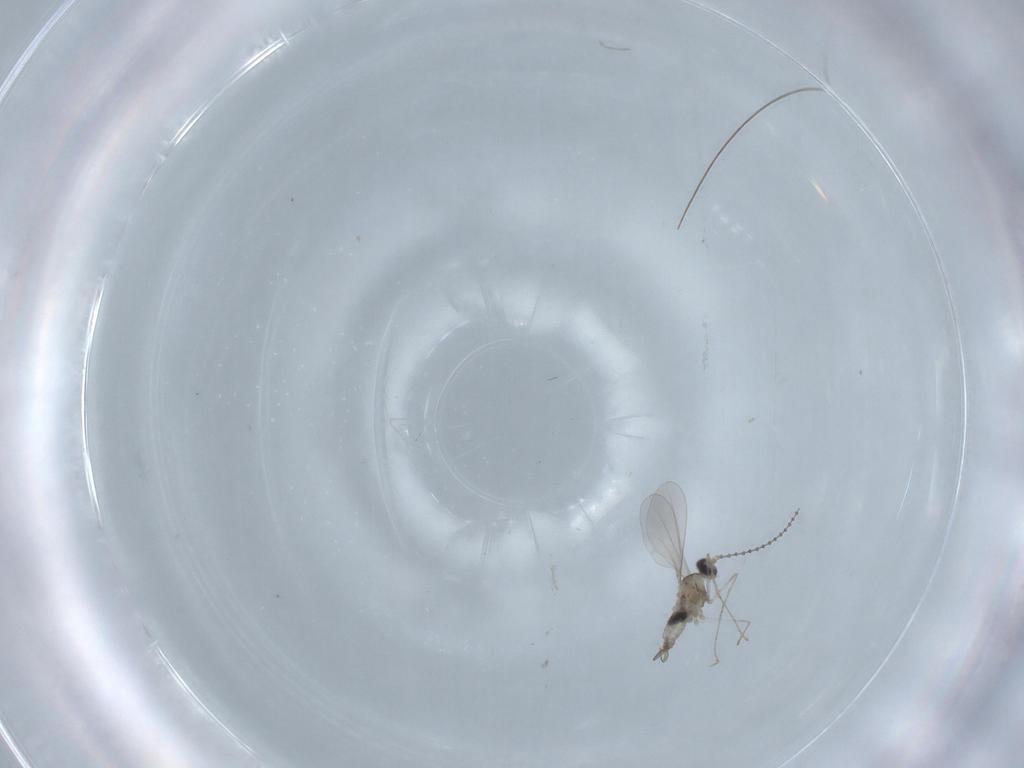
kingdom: Animalia
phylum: Arthropoda
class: Insecta
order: Diptera
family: Cecidomyiidae
